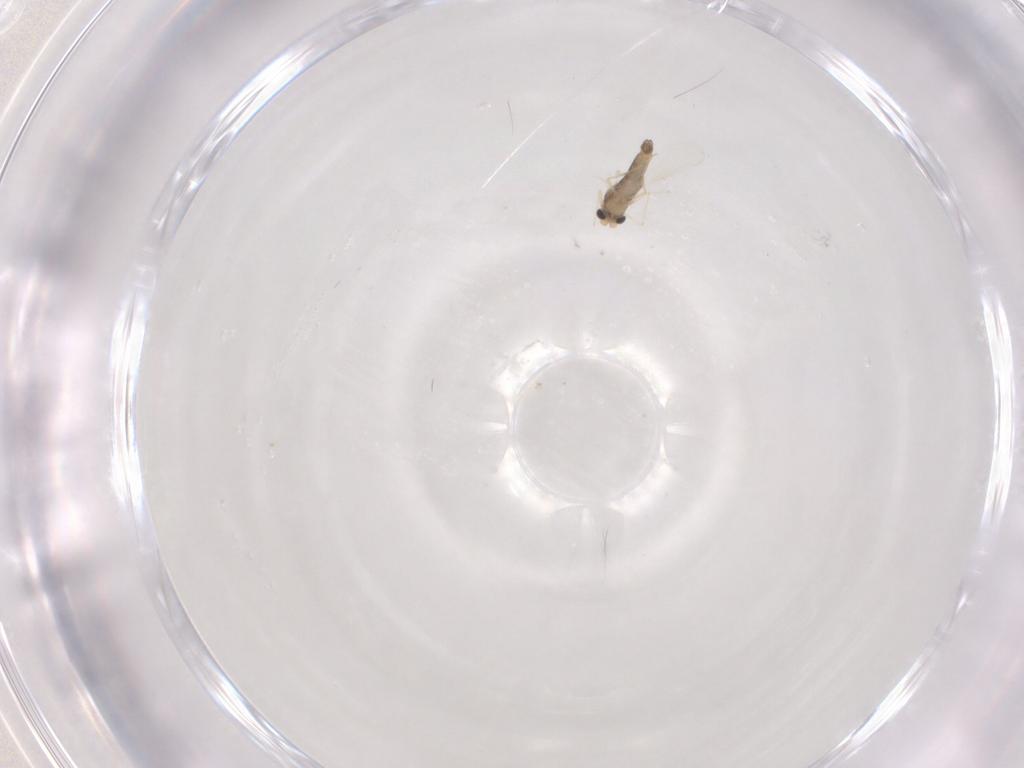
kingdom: Animalia
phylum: Arthropoda
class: Insecta
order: Diptera
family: Chironomidae
